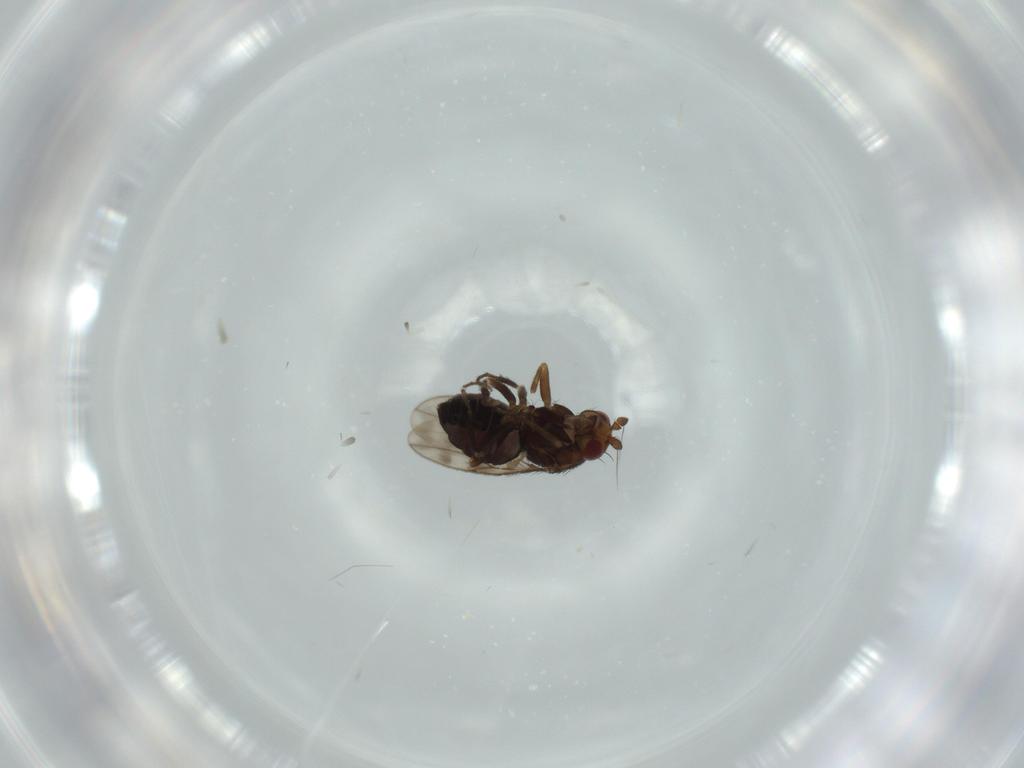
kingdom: Animalia
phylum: Arthropoda
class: Insecta
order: Diptera
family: Sphaeroceridae
